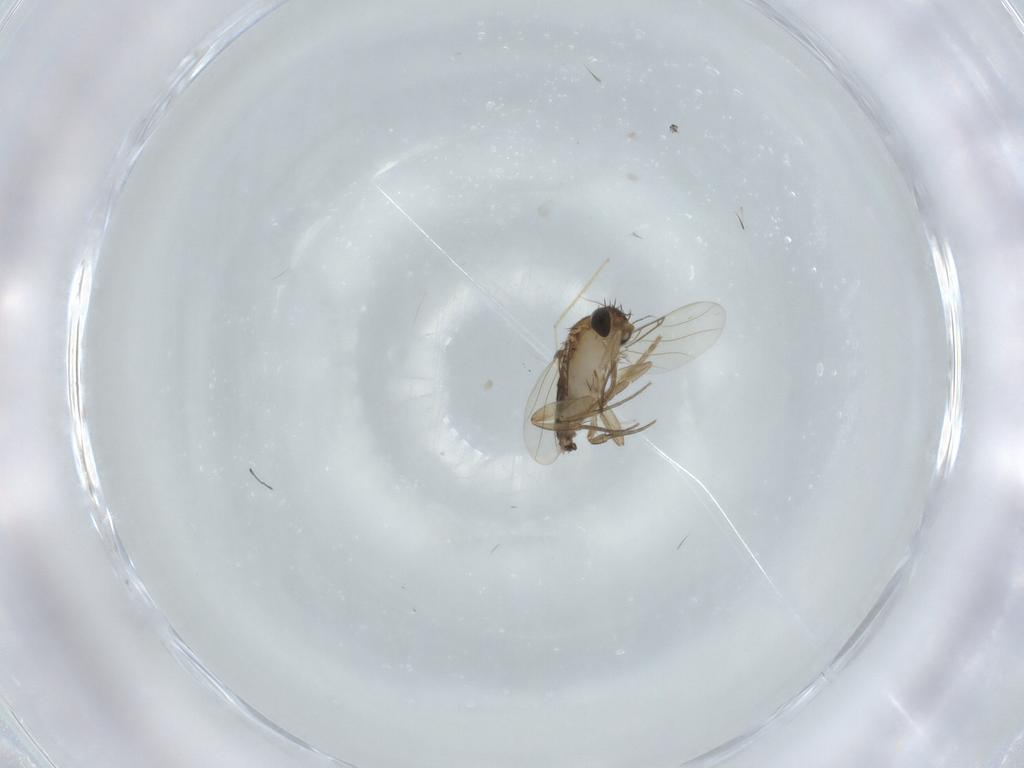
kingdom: Animalia
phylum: Arthropoda
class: Insecta
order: Diptera
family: Phoridae
